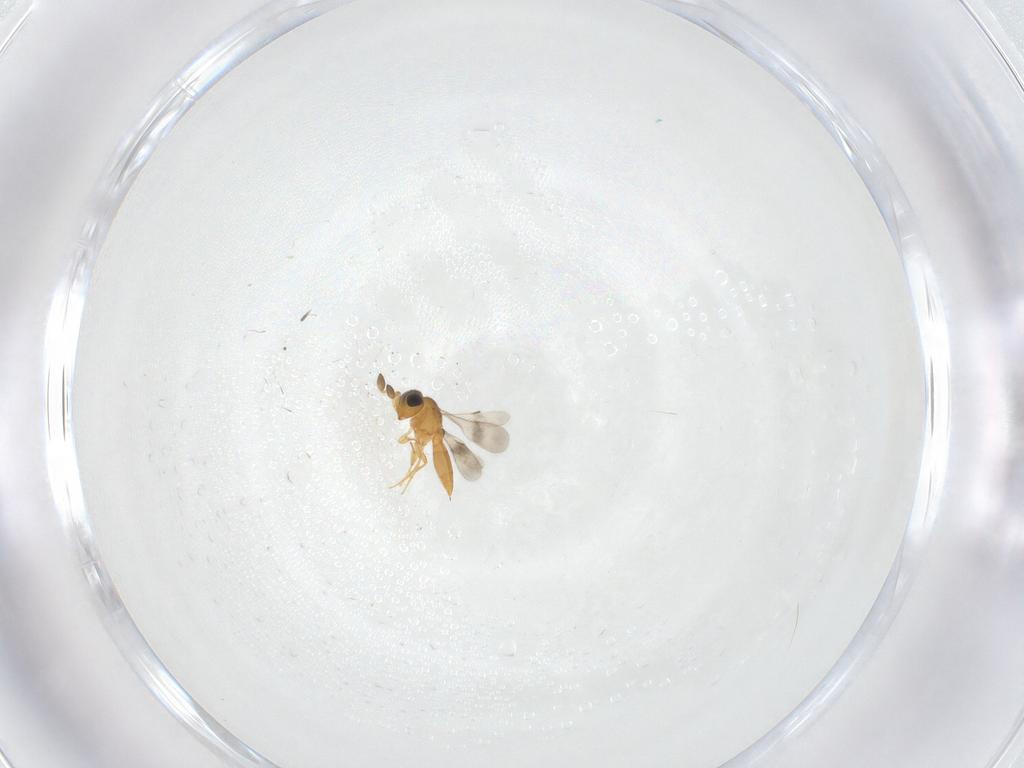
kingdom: Animalia
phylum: Arthropoda
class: Insecta
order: Hymenoptera
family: Scelionidae
